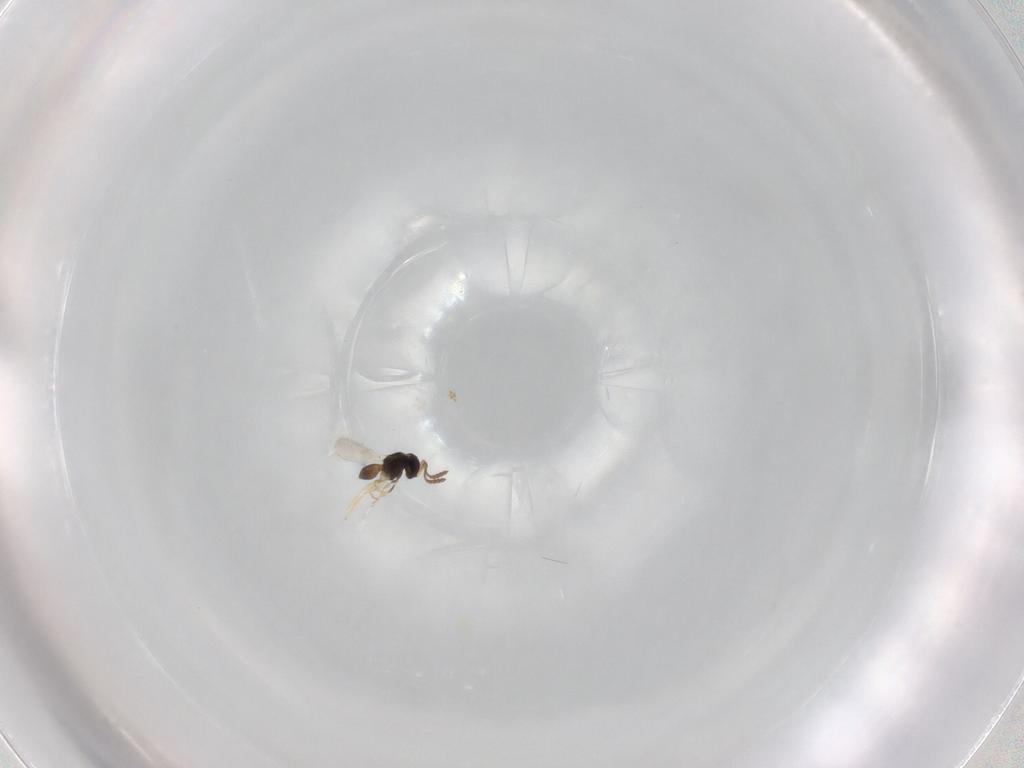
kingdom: Animalia
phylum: Arthropoda
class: Insecta
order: Hymenoptera
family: Scelionidae
